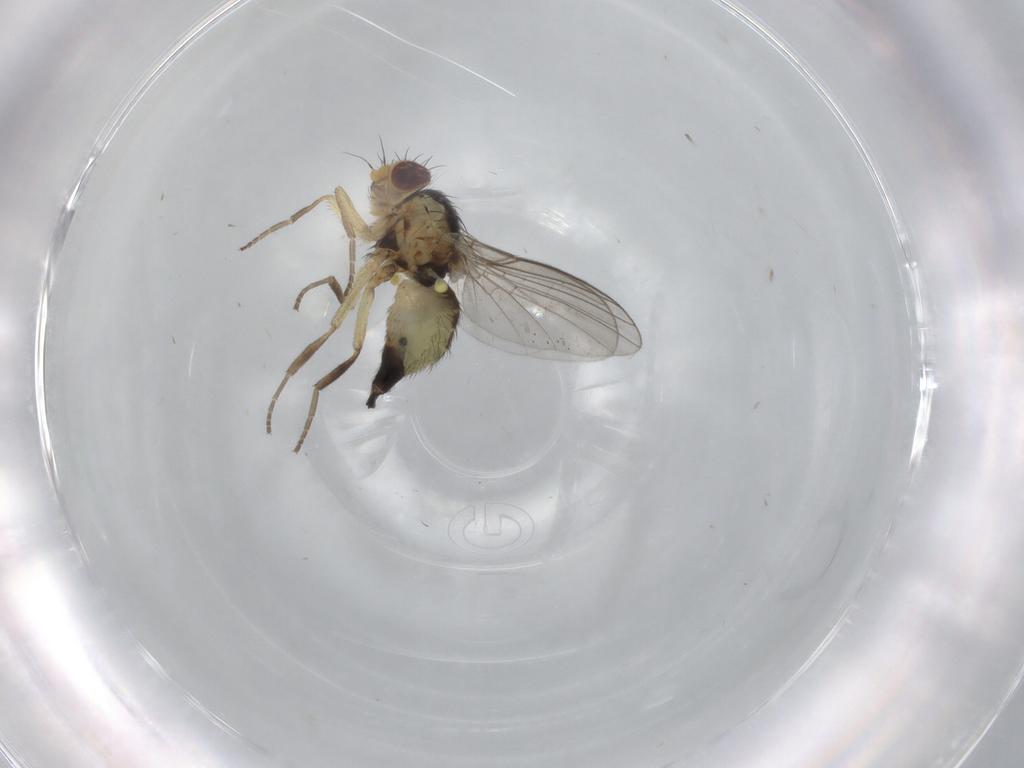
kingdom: Animalia
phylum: Arthropoda
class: Insecta
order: Diptera
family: Agromyzidae
